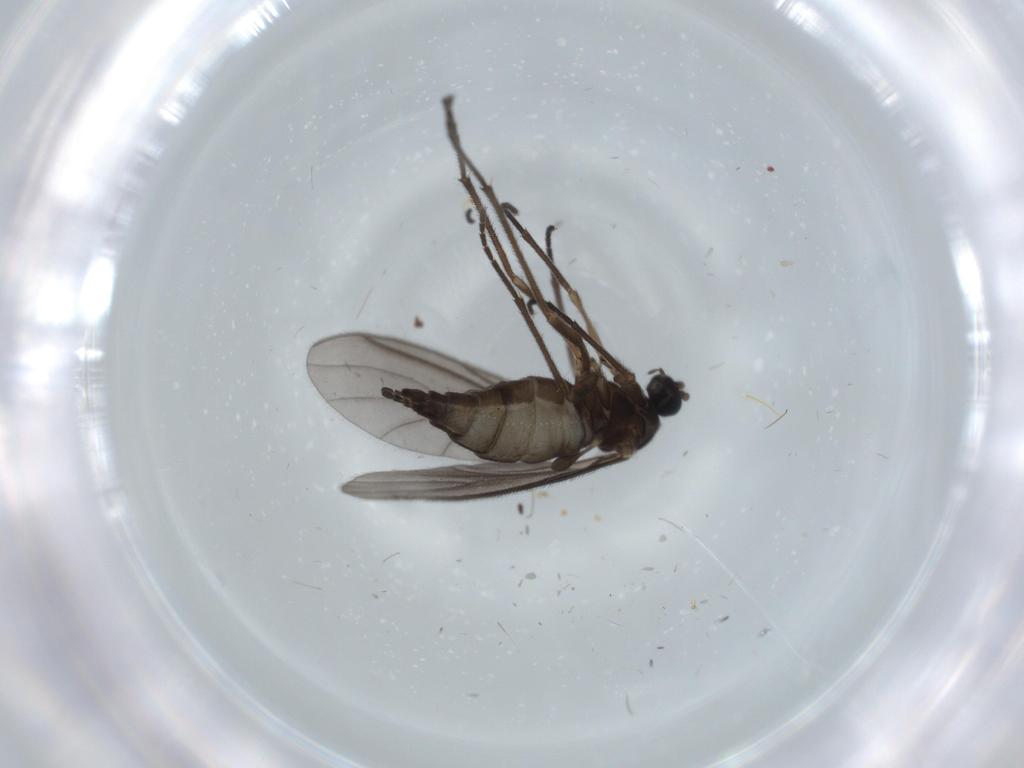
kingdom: Animalia
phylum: Arthropoda
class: Insecta
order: Diptera
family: Sciaridae
